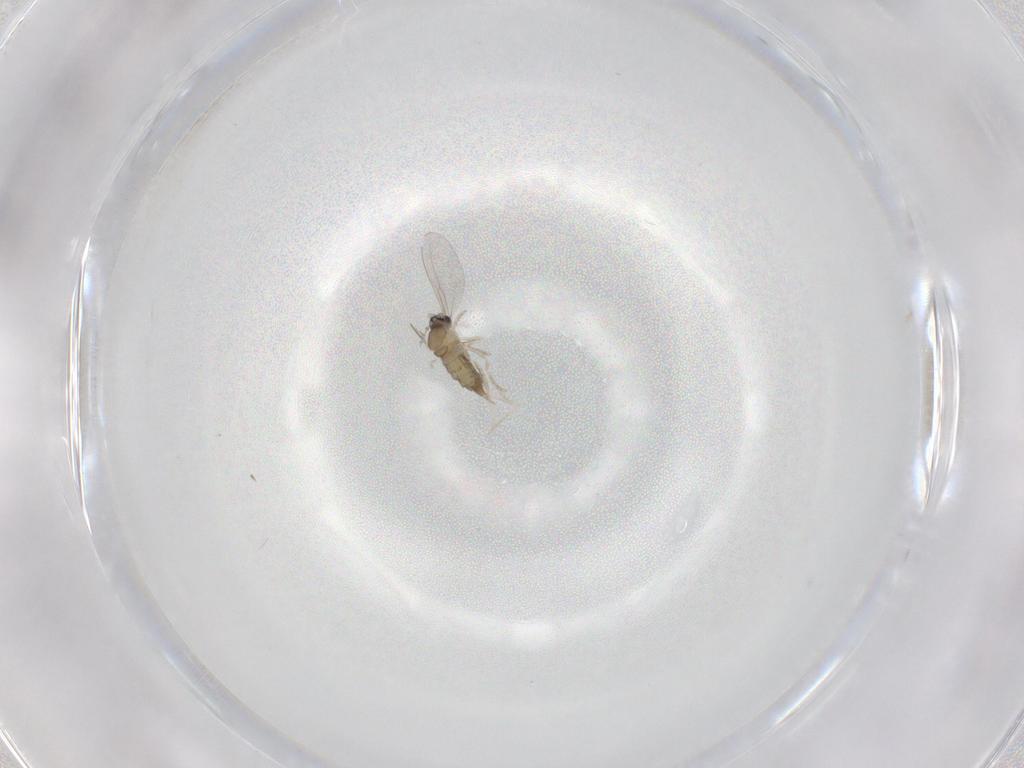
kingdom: Animalia
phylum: Arthropoda
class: Insecta
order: Diptera
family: Cecidomyiidae
